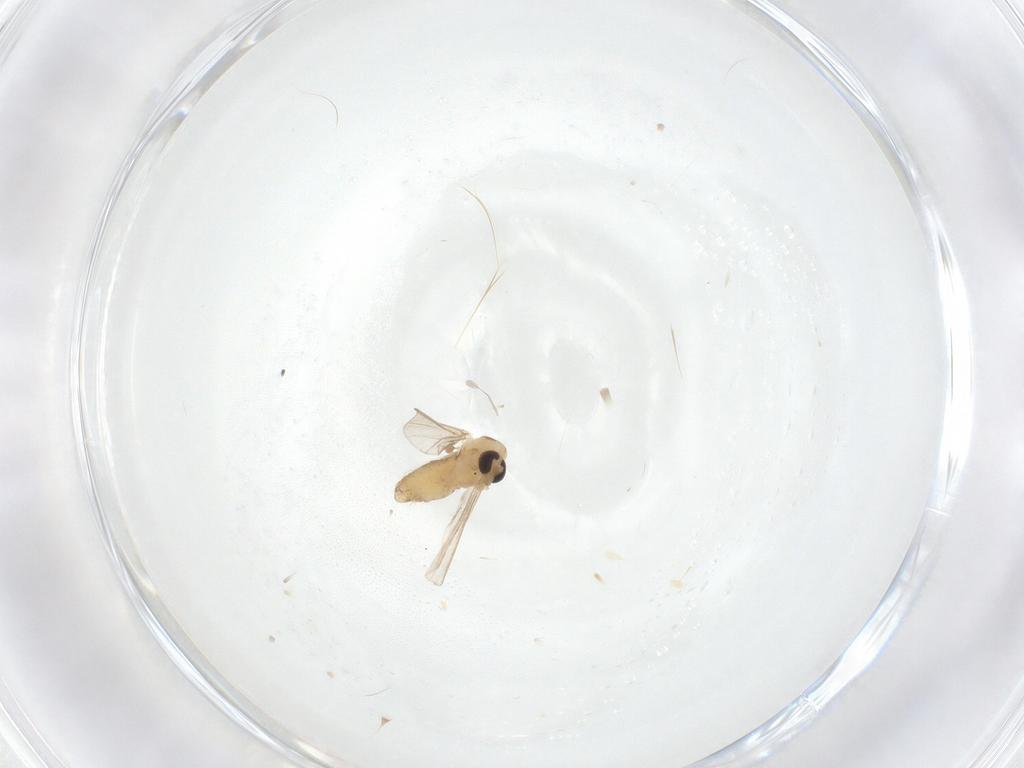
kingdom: Animalia
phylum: Arthropoda
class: Insecta
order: Diptera
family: Chironomidae
